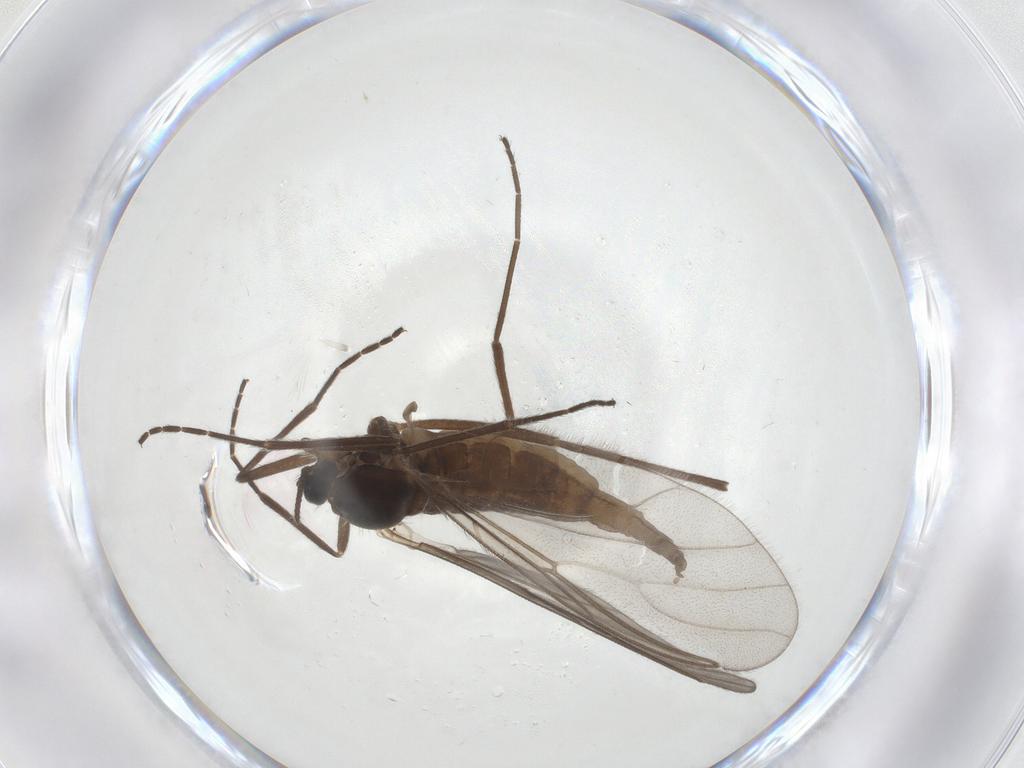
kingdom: Animalia
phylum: Arthropoda
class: Insecta
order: Diptera
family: Cecidomyiidae
